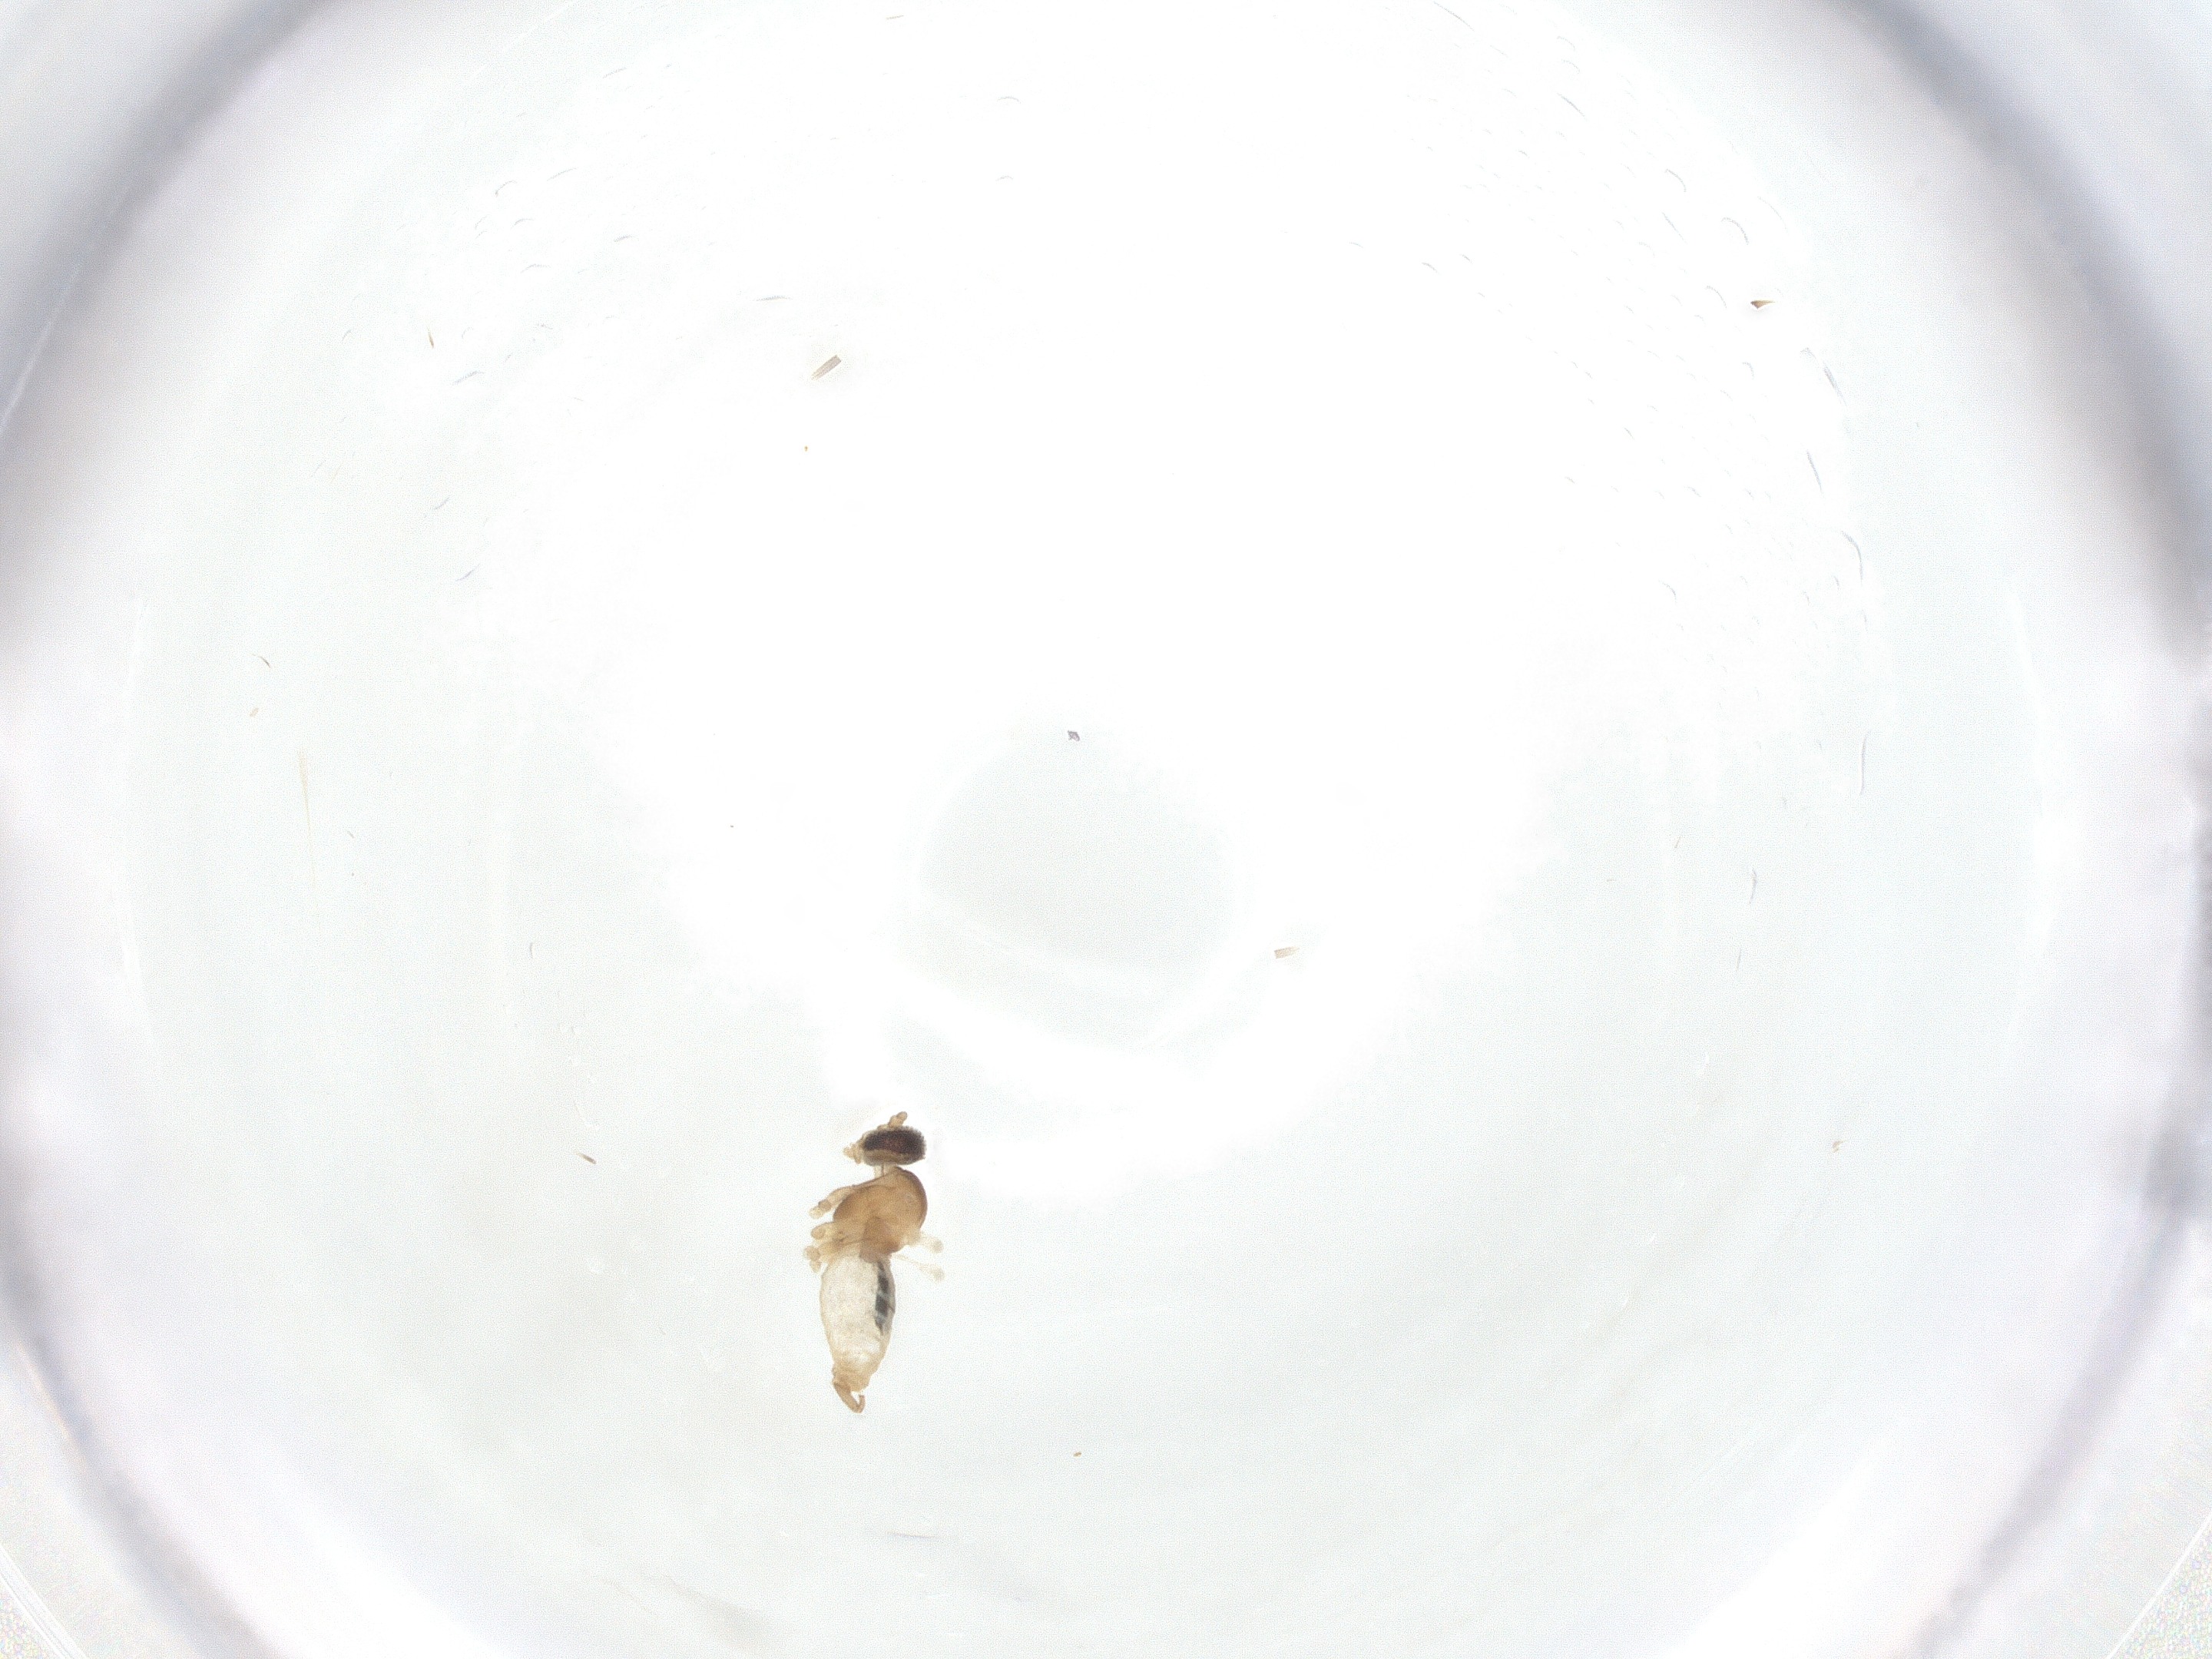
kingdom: Animalia
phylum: Arthropoda
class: Insecta
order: Diptera
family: Cecidomyiidae
